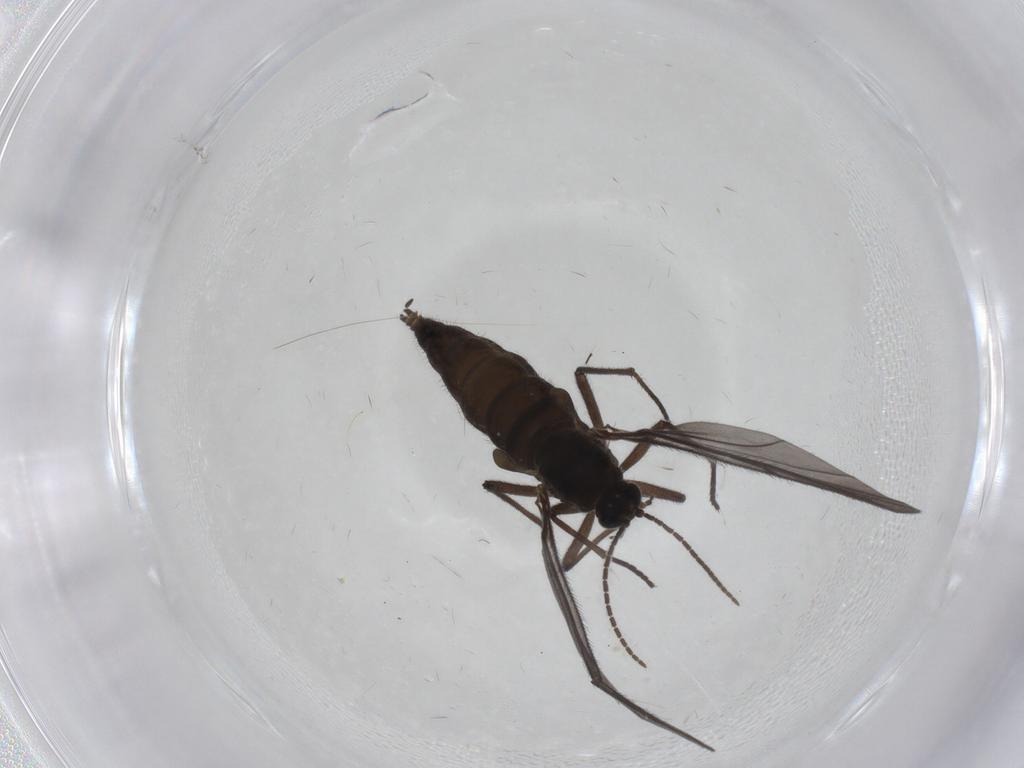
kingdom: Animalia
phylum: Arthropoda
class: Insecta
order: Diptera
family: Sciaridae
